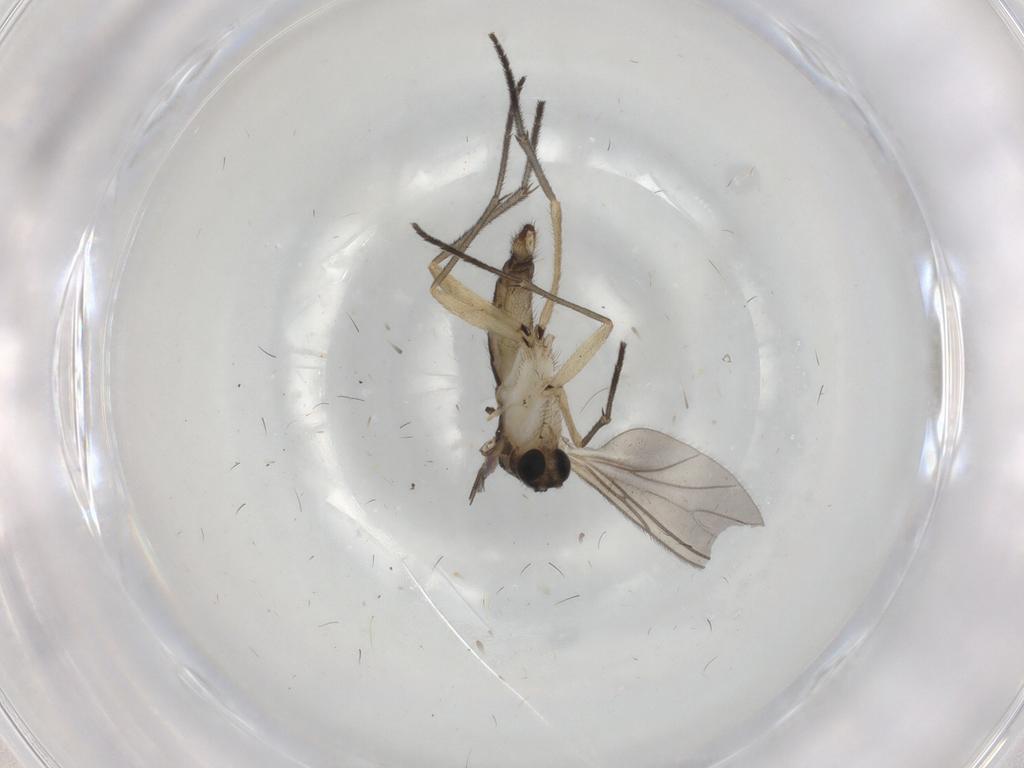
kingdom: Animalia
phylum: Arthropoda
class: Insecta
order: Diptera
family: Sciaridae
